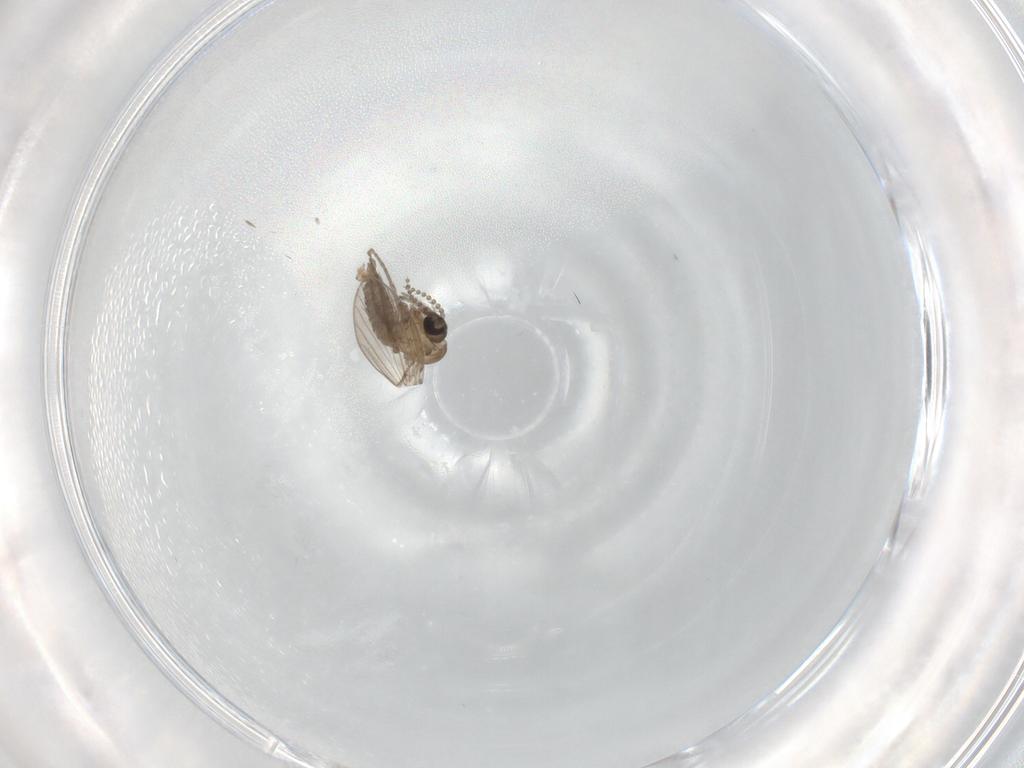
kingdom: Animalia
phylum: Arthropoda
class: Insecta
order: Diptera
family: Psychodidae
